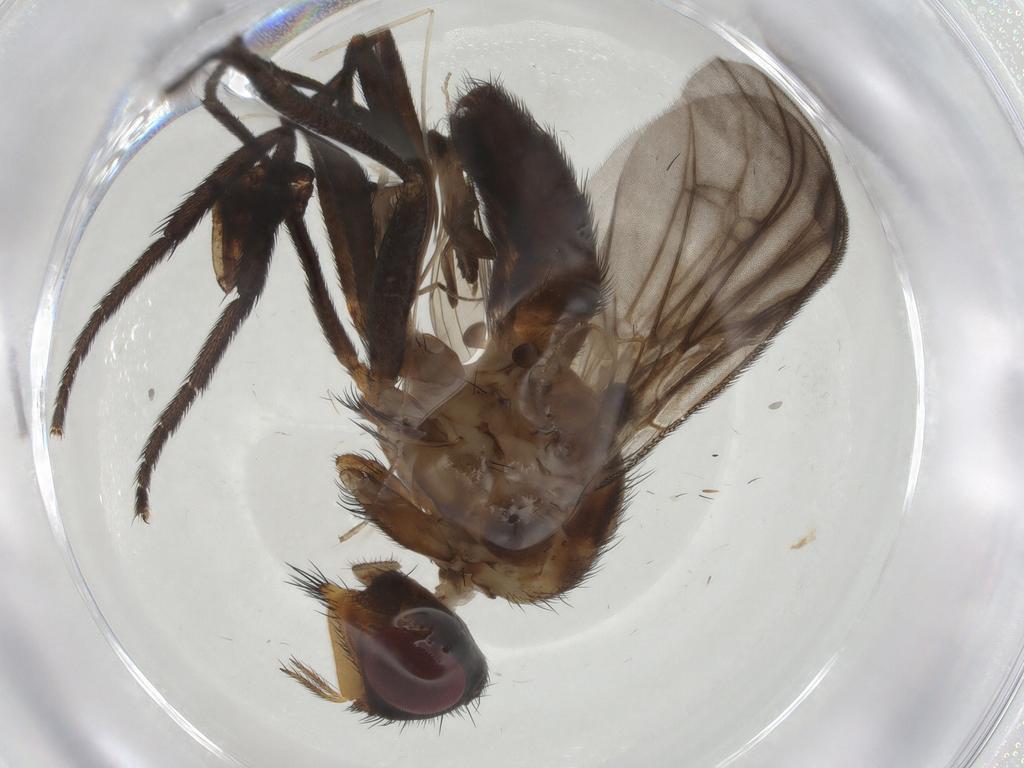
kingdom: Animalia
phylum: Arthropoda
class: Insecta
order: Diptera
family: Calliphoridae
